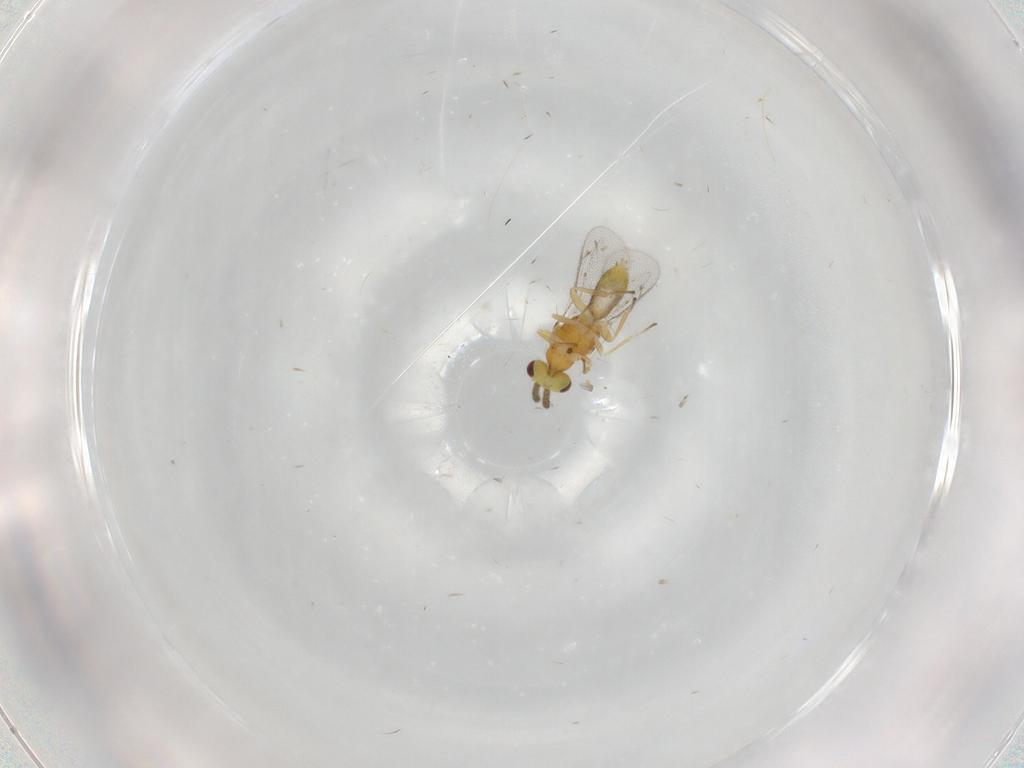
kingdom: Animalia
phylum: Arthropoda
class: Insecta
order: Hymenoptera
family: Eulophidae
